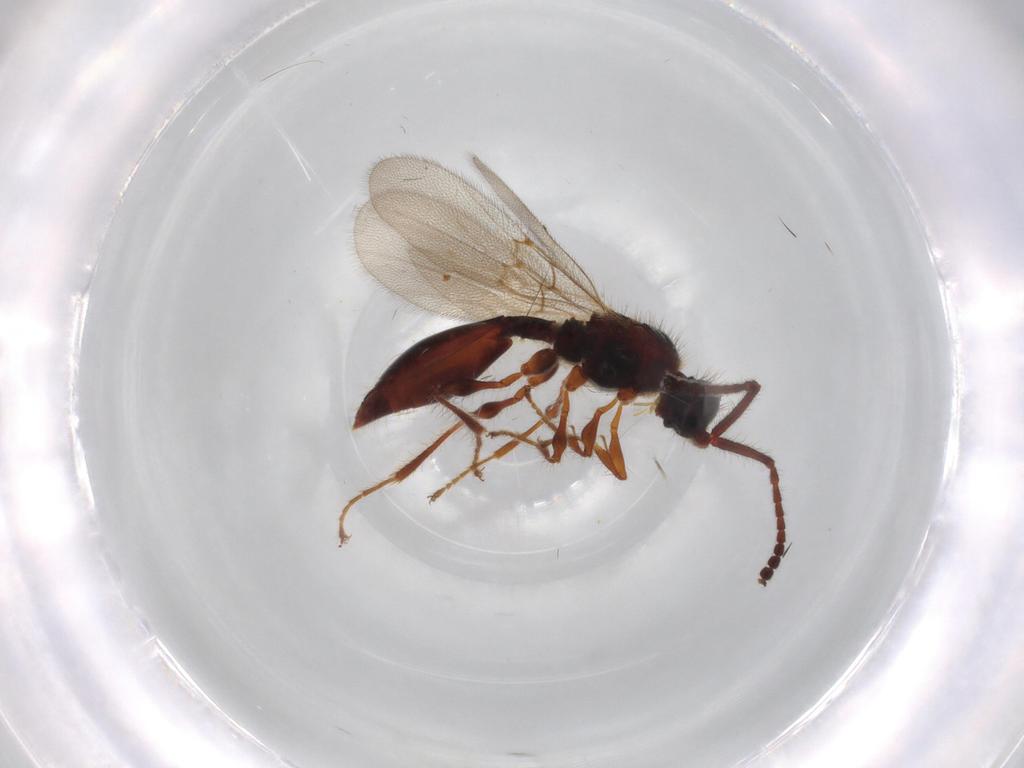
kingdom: Animalia
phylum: Arthropoda
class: Insecta
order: Hymenoptera
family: Diapriidae
